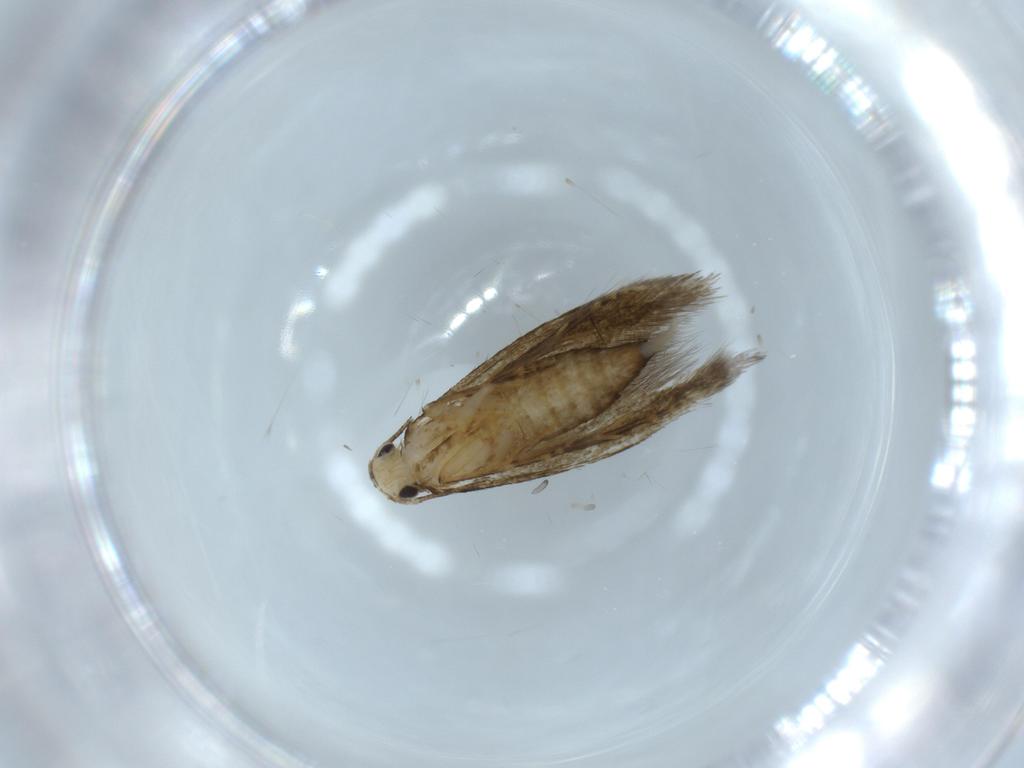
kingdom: Animalia
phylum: Arthropoda
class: Insecta
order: Lepidoptera
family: Tineidae
